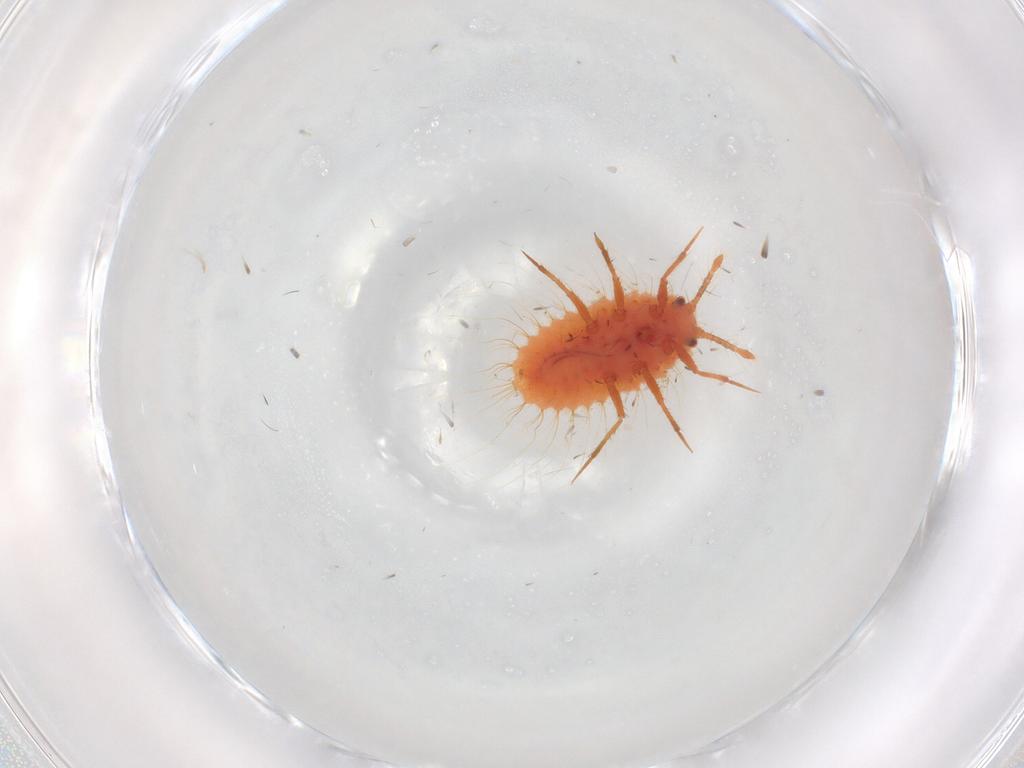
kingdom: Animalia
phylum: Arthropoda
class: Insecta
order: Hemiptera
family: Coccoidea_incertae_sedis
